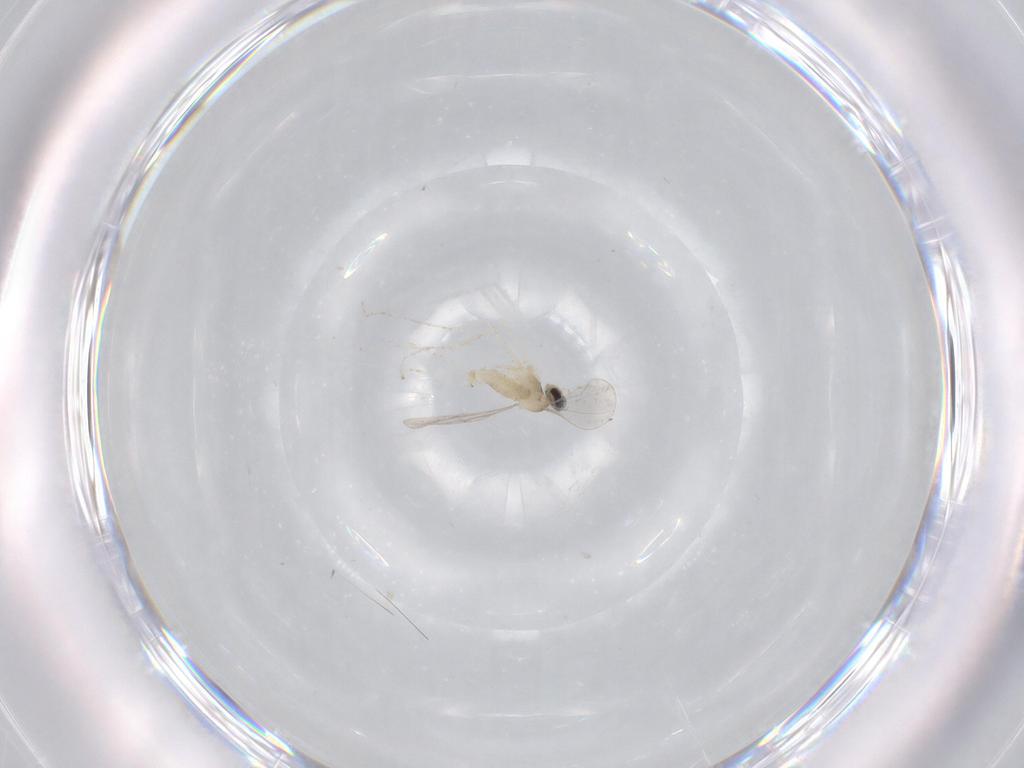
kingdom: Animalia
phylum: Arthropoda
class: Insecta
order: Diptera
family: Cecidomyiidae
